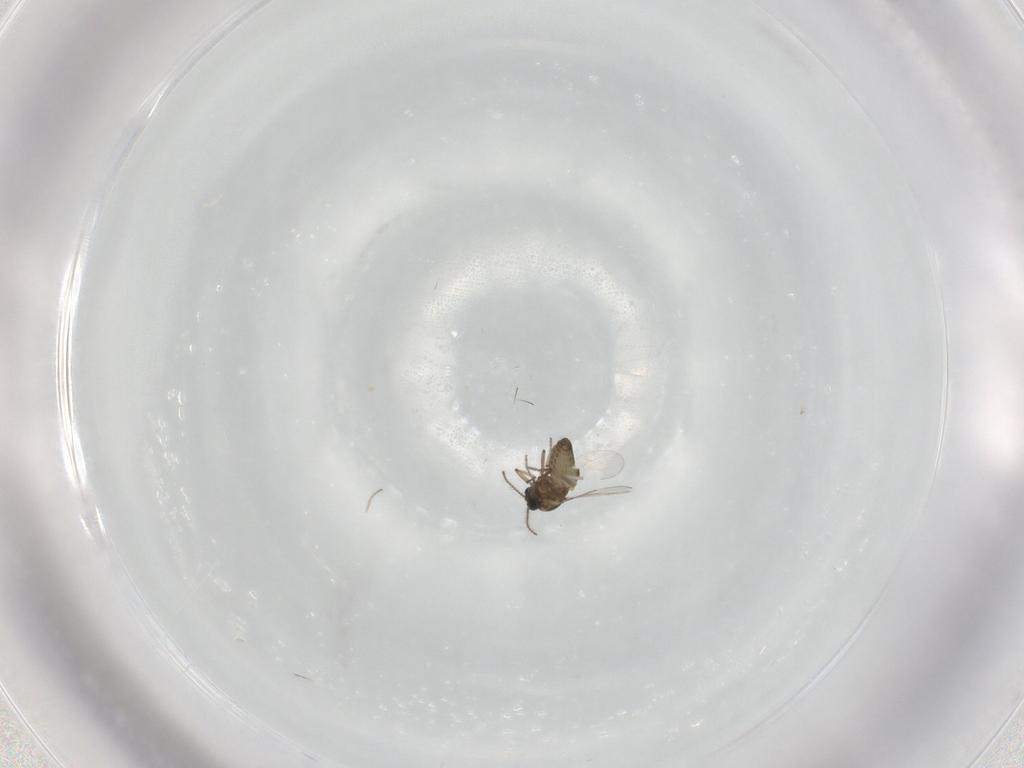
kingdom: Animalia
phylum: Arthropoda
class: Insecta
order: Diptera
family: Ceratopogonidae
